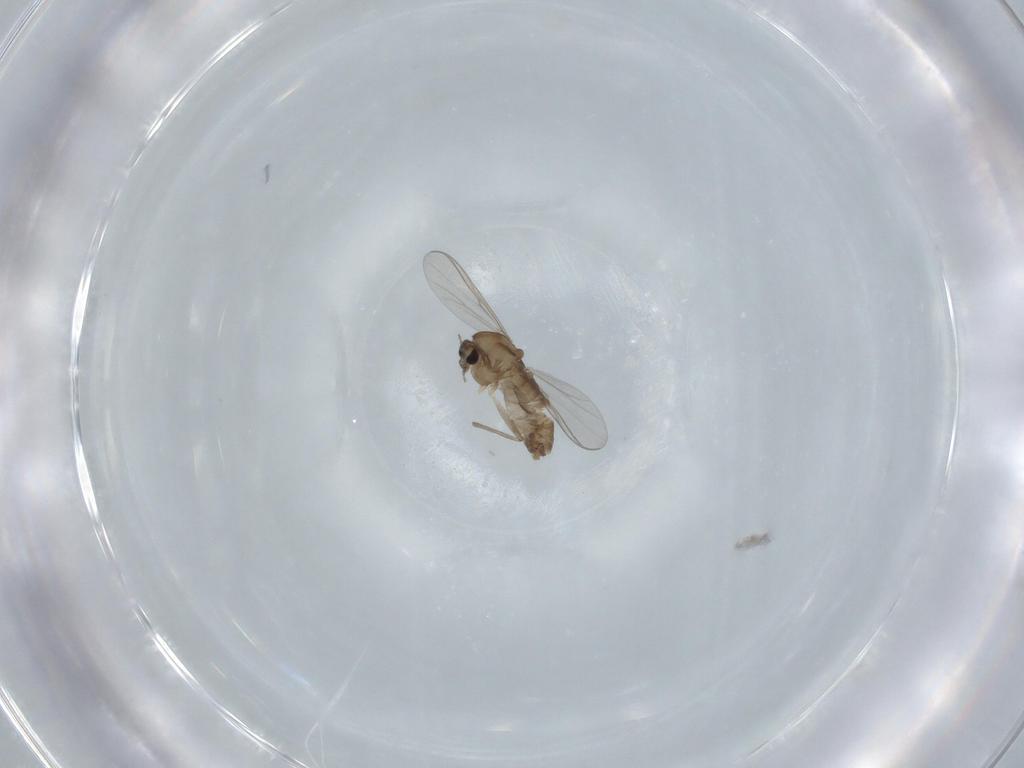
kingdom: Animalia
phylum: Arthropoda
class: Insecta
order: Diptera
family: Chironomidae
